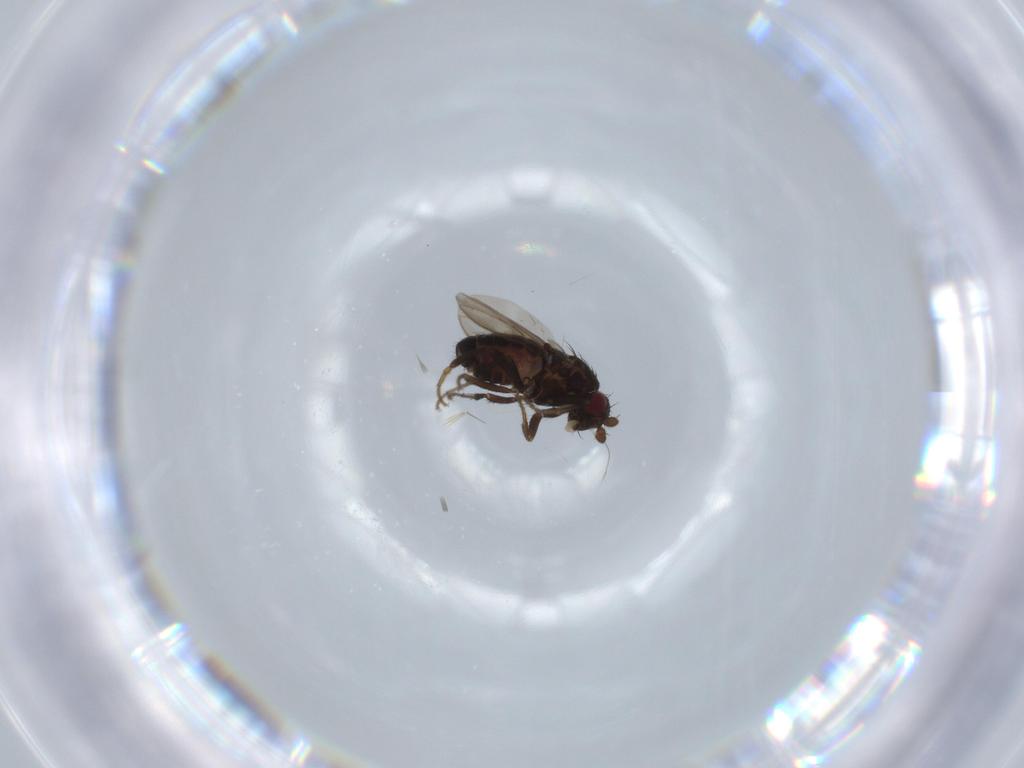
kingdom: Animalia
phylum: Arthropoda
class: Insecta
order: Diptera
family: Sphaeroceridae
